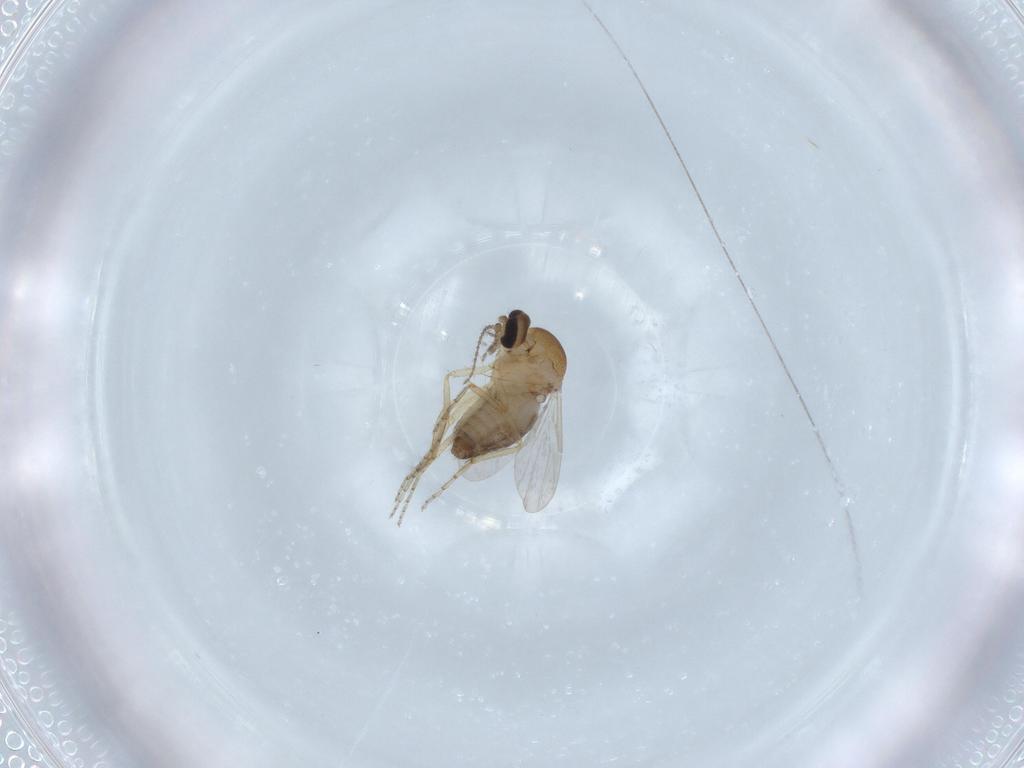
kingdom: Animalia
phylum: Arthropoda
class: Insecta
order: Diptera
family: Ceratopogonidae
